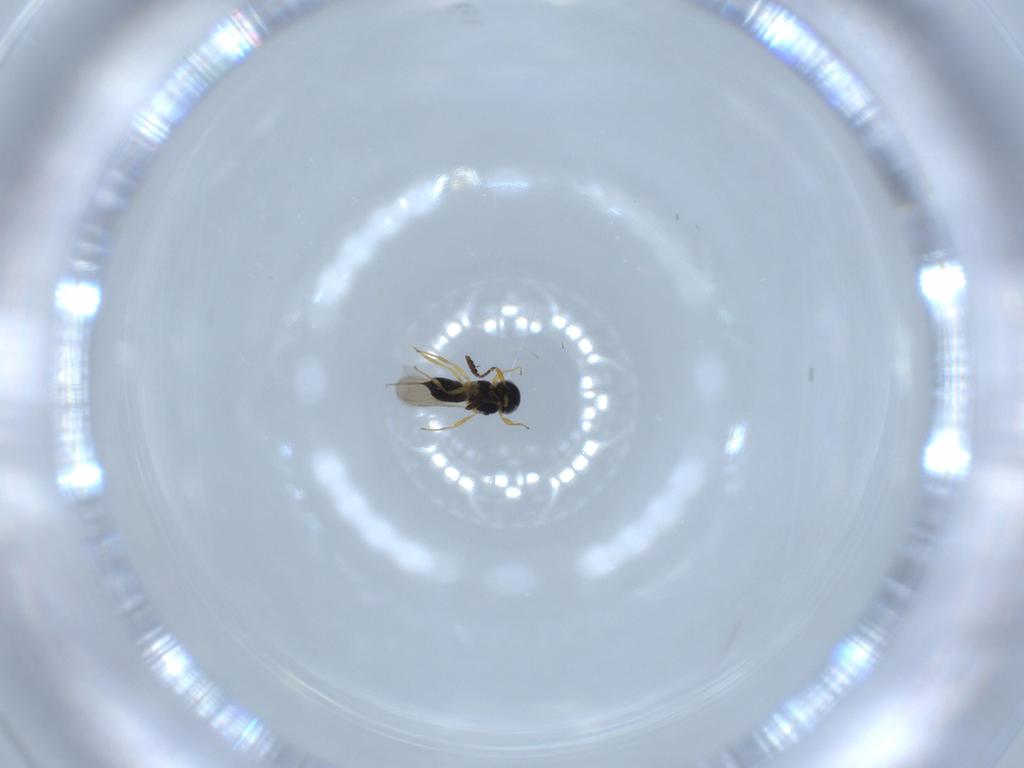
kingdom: Animalia
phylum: Arthropoda
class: Insecta
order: Hymenoptera
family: Scelionidae
